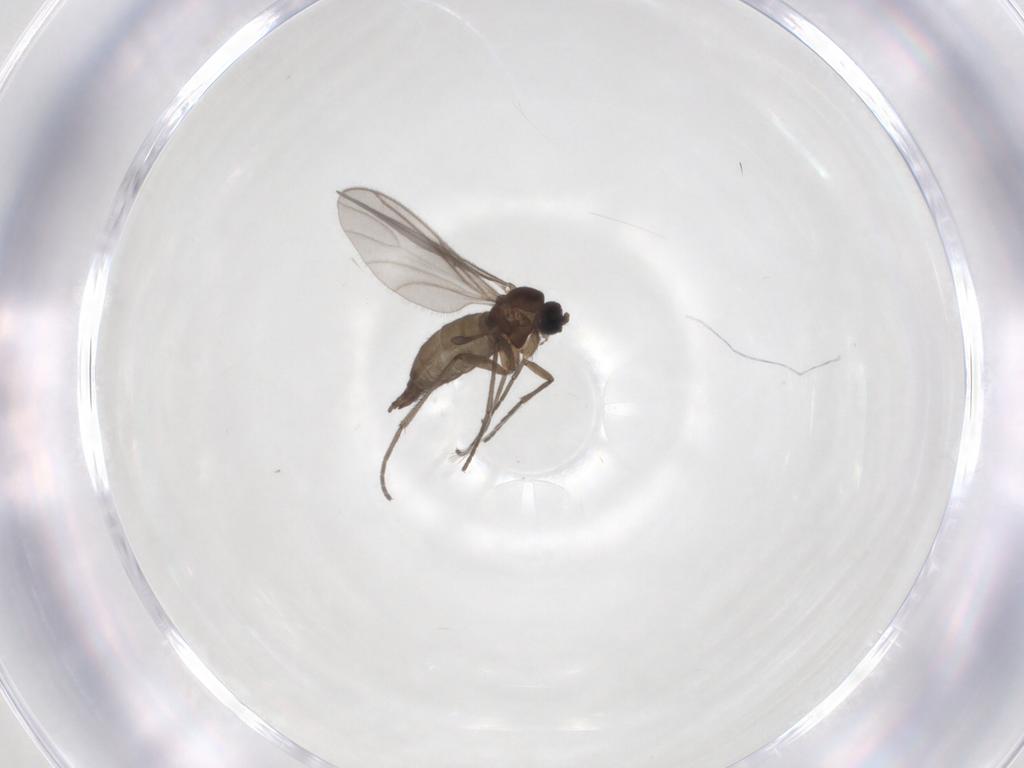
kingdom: Animalia
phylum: Arthropoda
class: Insecta
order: Diptera
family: Sciaridae
